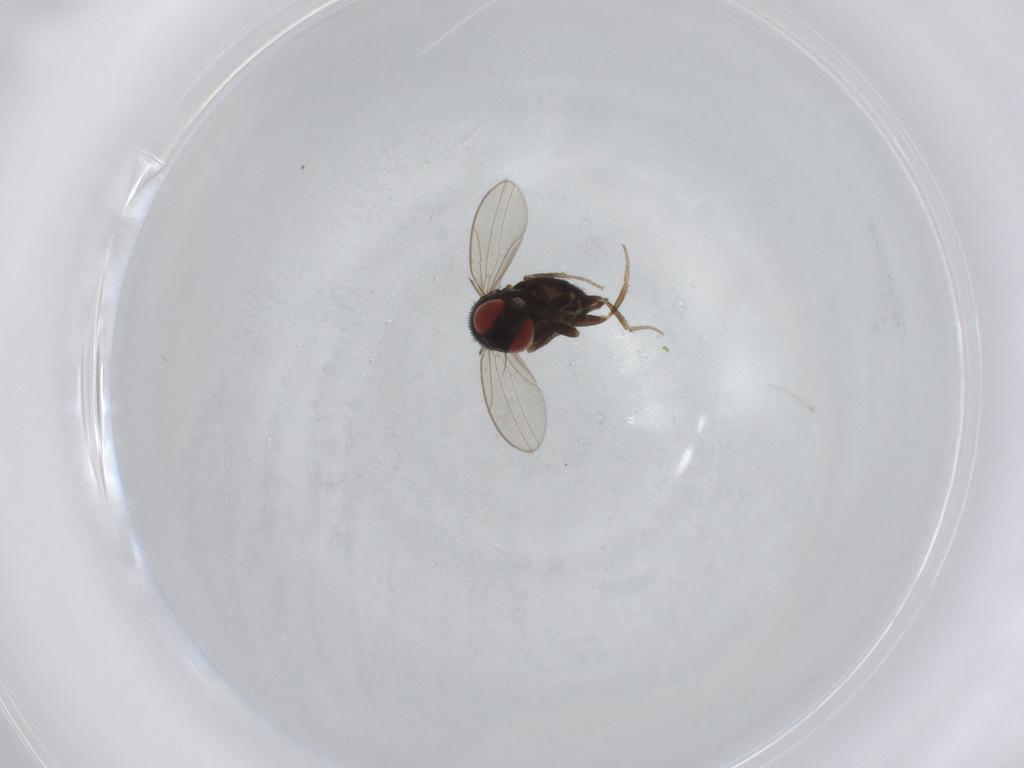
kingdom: Animalia
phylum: Arthropoda
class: Insecta
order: Diptera
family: Drosophilidae
